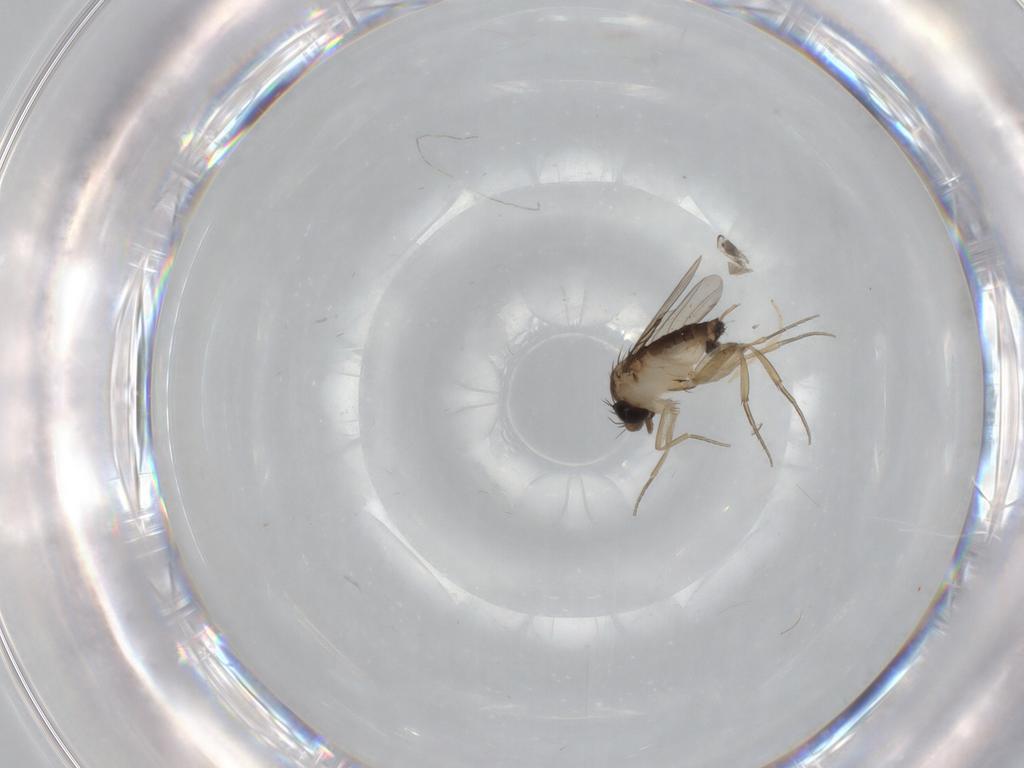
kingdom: Animalia
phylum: Arthropoda
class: Insecta
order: Diptera
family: Phoridae
